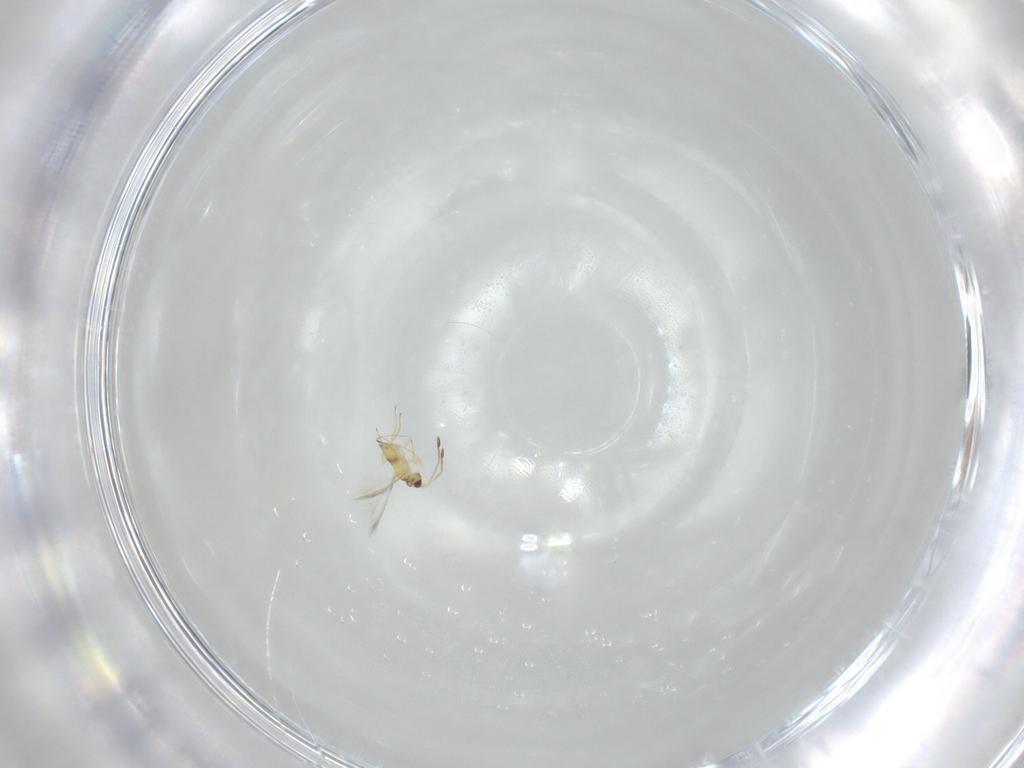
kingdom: Animalia
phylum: Arthropoda
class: Insecta
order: Hymenoptera
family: Mymaridae
